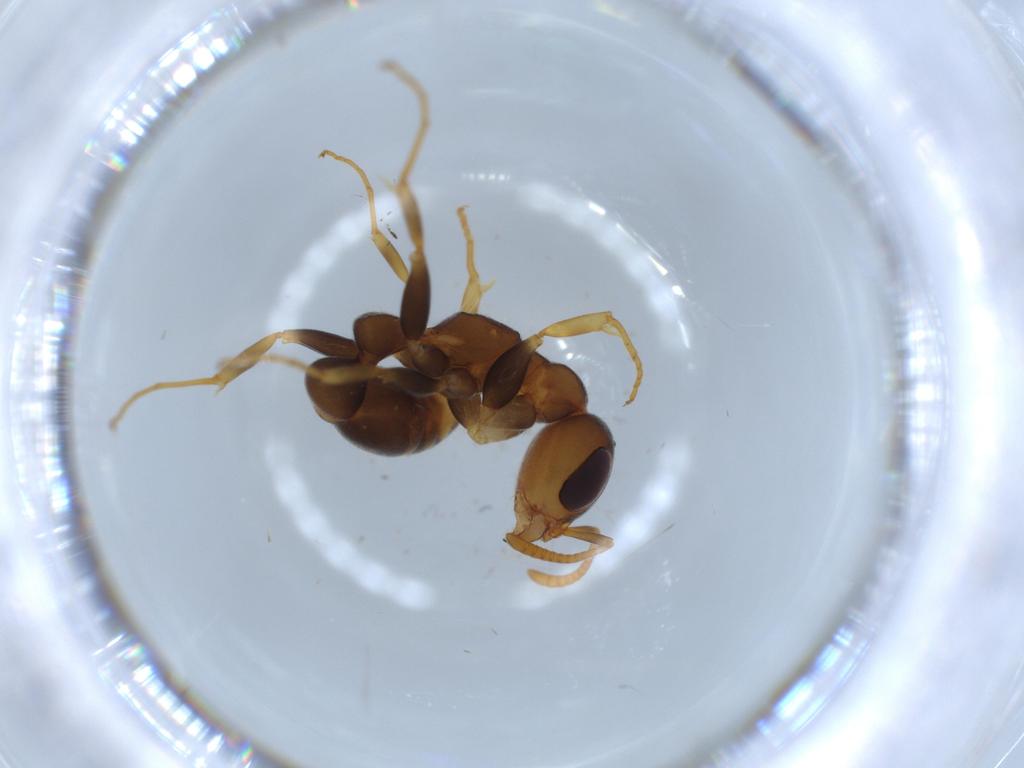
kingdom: Animalia
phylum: Arthropoda
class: Insecta
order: Hymenoptera
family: Formicidae
